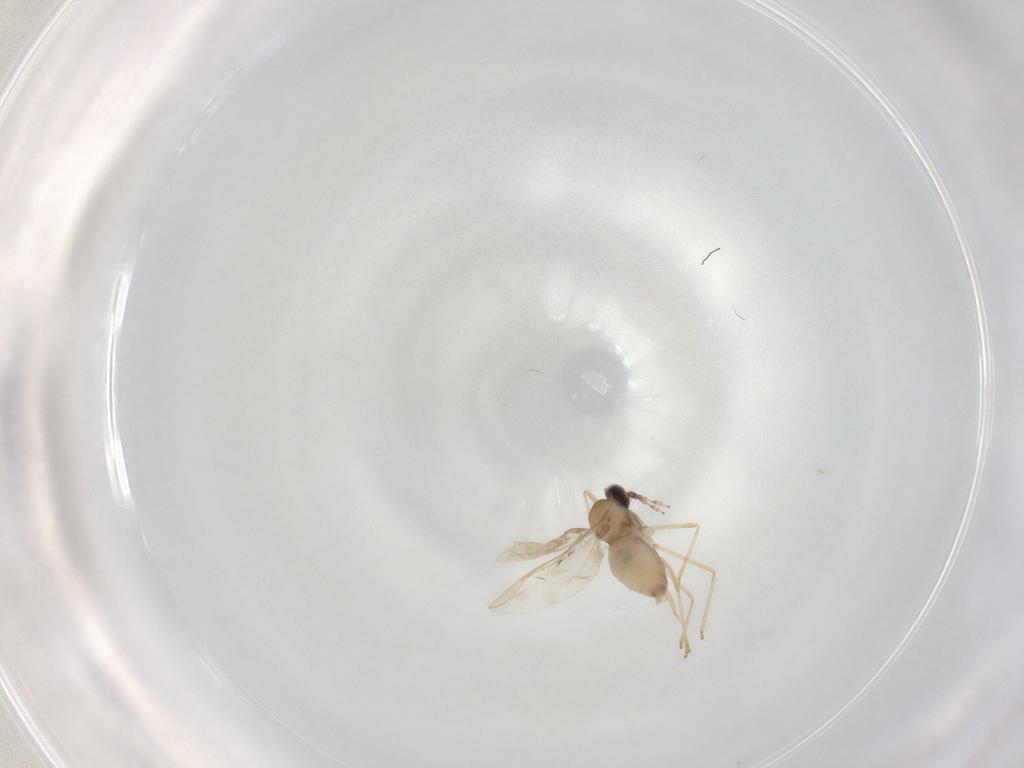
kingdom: Animalia
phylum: Arthropoda
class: Insecta
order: Diptera
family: Cecidomyiidae
